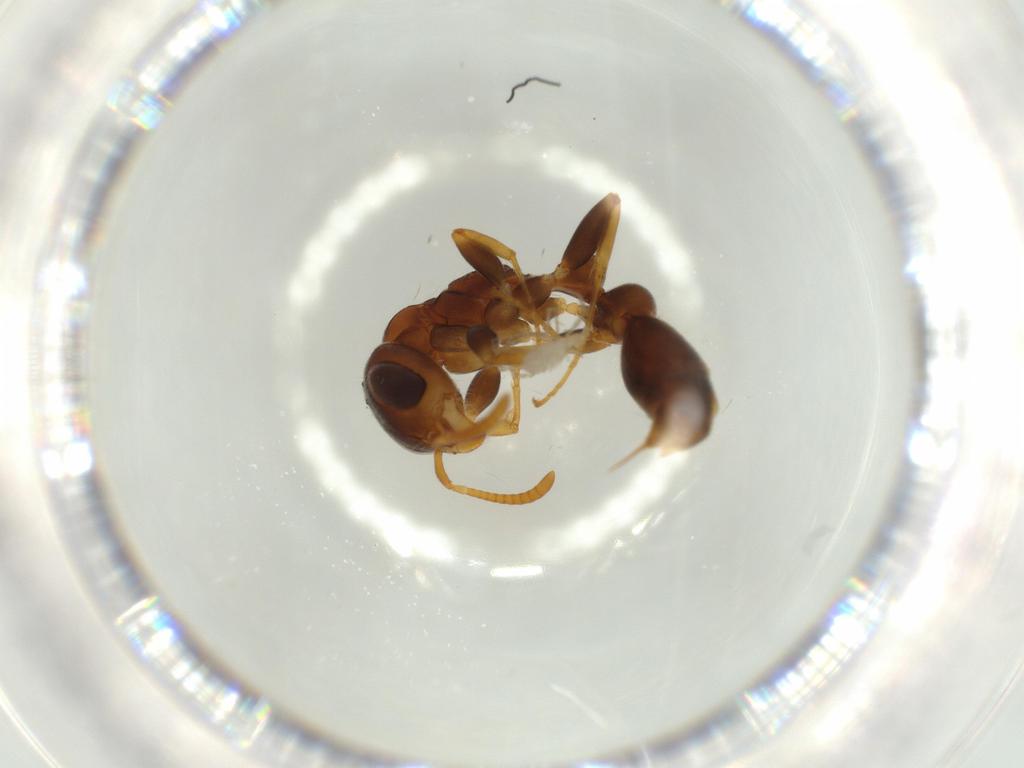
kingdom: Animalia
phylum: Arthropoda
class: Insecta
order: Hymenoptera
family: Formicidae
